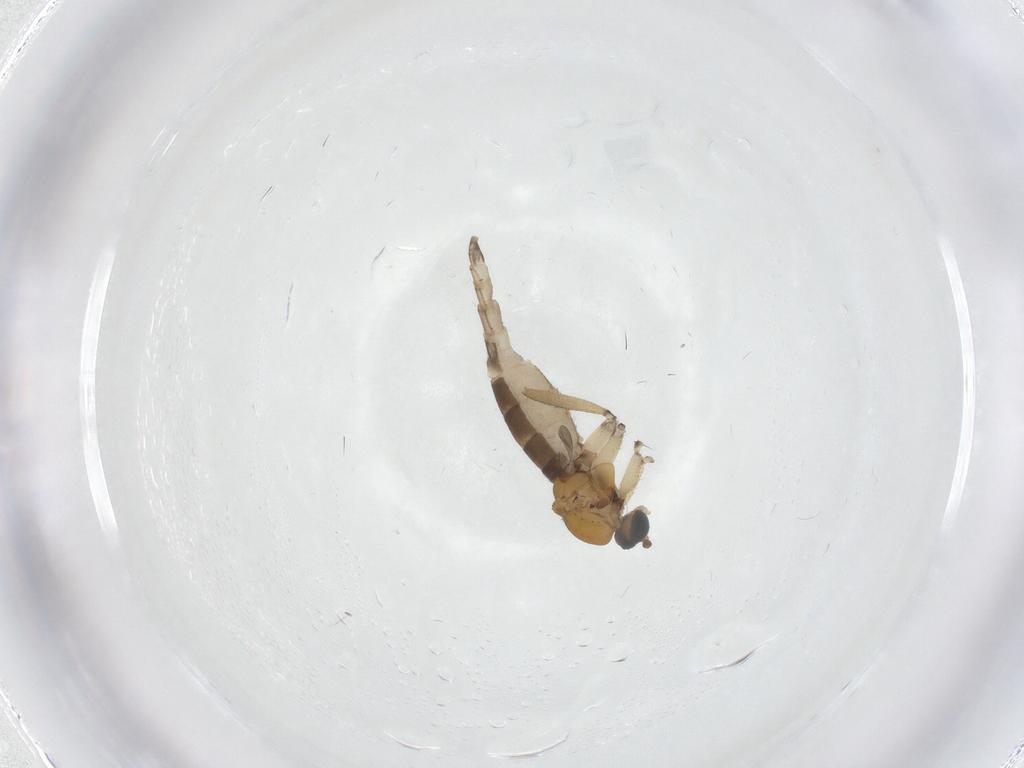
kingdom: Animalia
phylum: Arthropoda
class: Insecta
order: Diptera
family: Sciaridae
